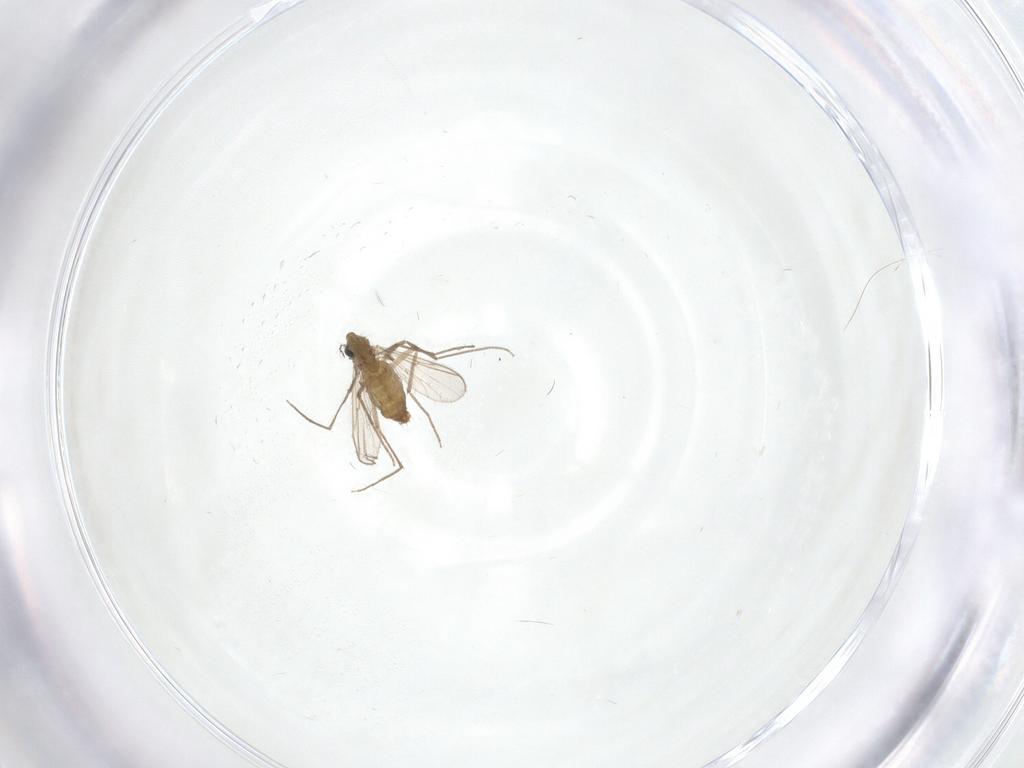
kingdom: Animalia
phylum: Arthropoda
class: Insecta
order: Diptera
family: Chironomidae
